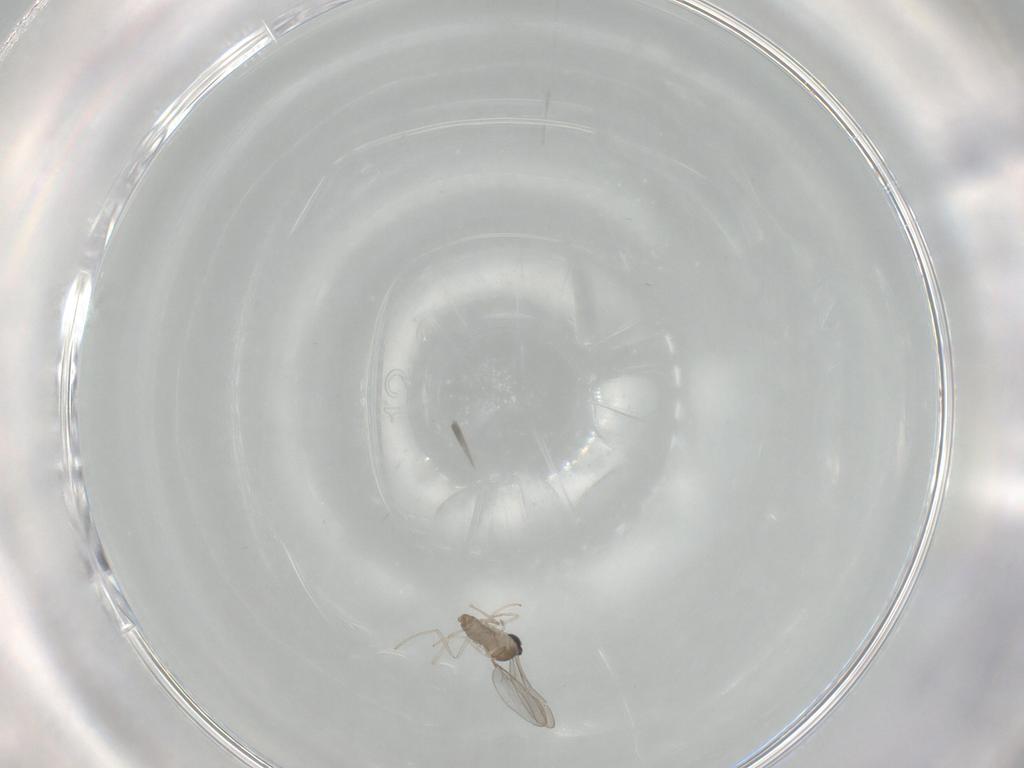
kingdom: Animalia
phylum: Arthropoda
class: Insecta
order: Diptera
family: Cecidomyiidae
